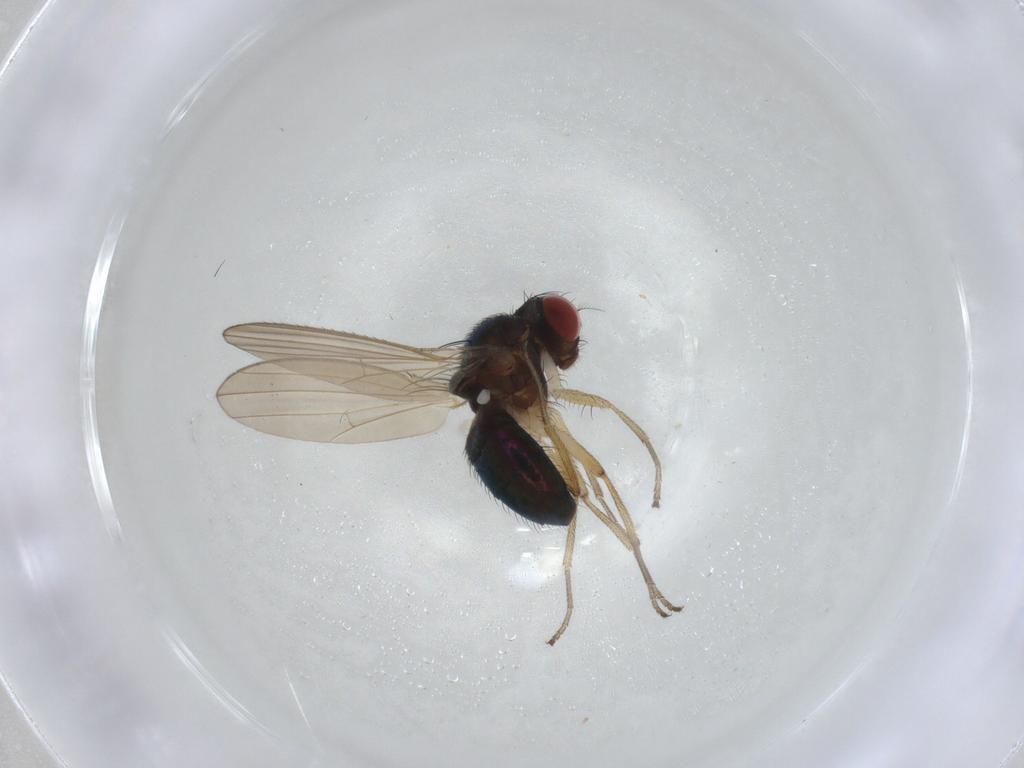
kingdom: Animalia
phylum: Arthropoda
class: Insecta
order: Diptera
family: Camillidae
